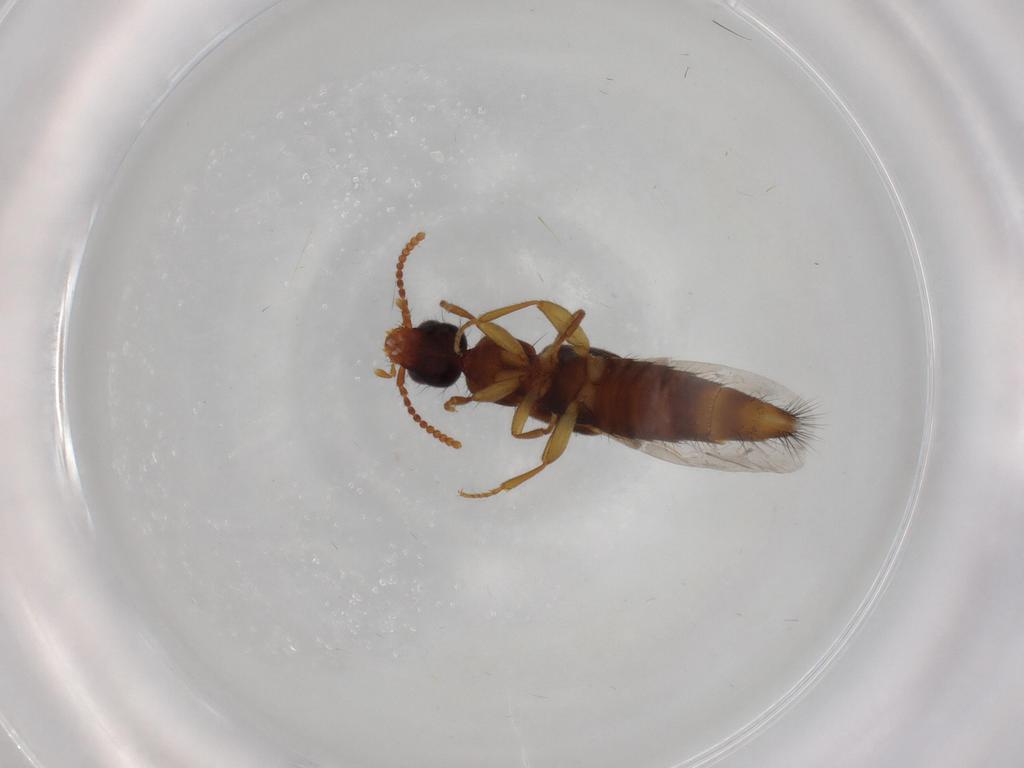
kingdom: Animalia
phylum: Arthropoda
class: Insecta
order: Coleoptera
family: Staphylinidae
